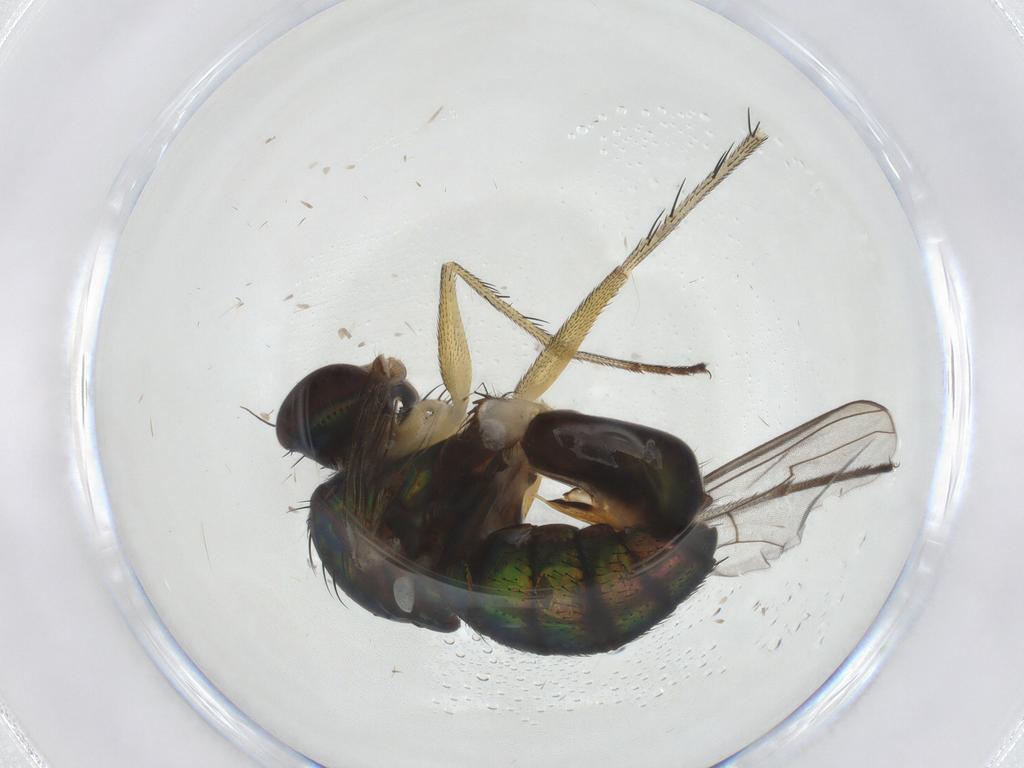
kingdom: Animalia
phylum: Arthropoda
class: Insecta
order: Diptera
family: Dolichopodidae
